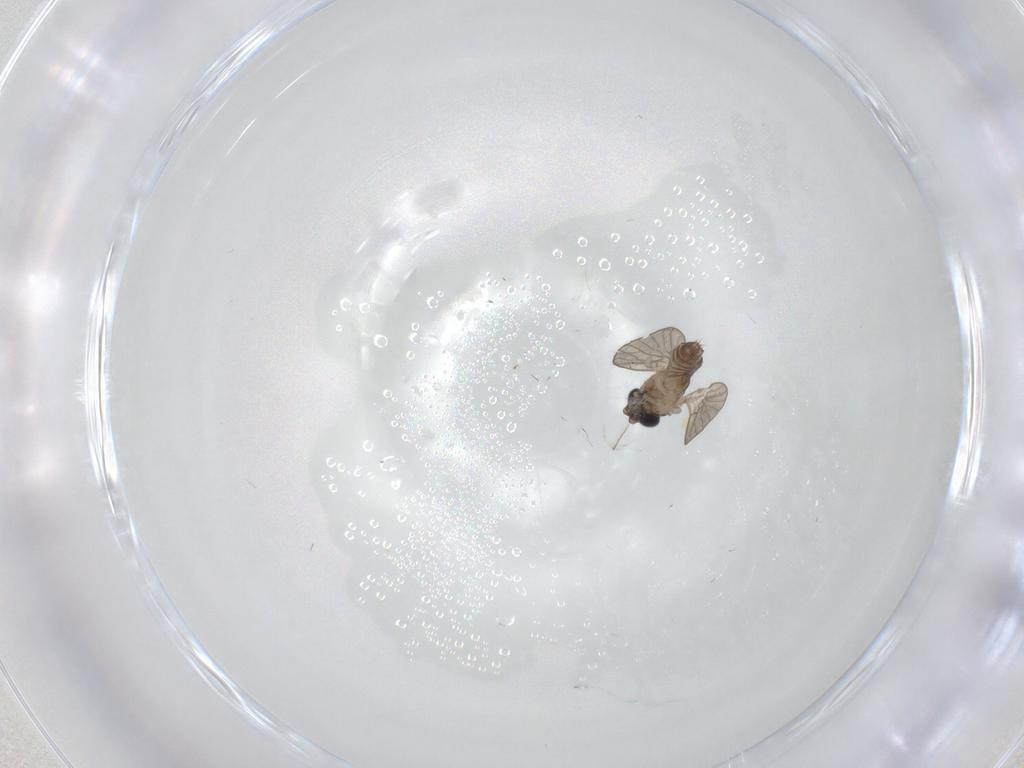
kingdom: Animalia
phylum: Arthropoda
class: Insecta
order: Diptera
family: Psychodidae
